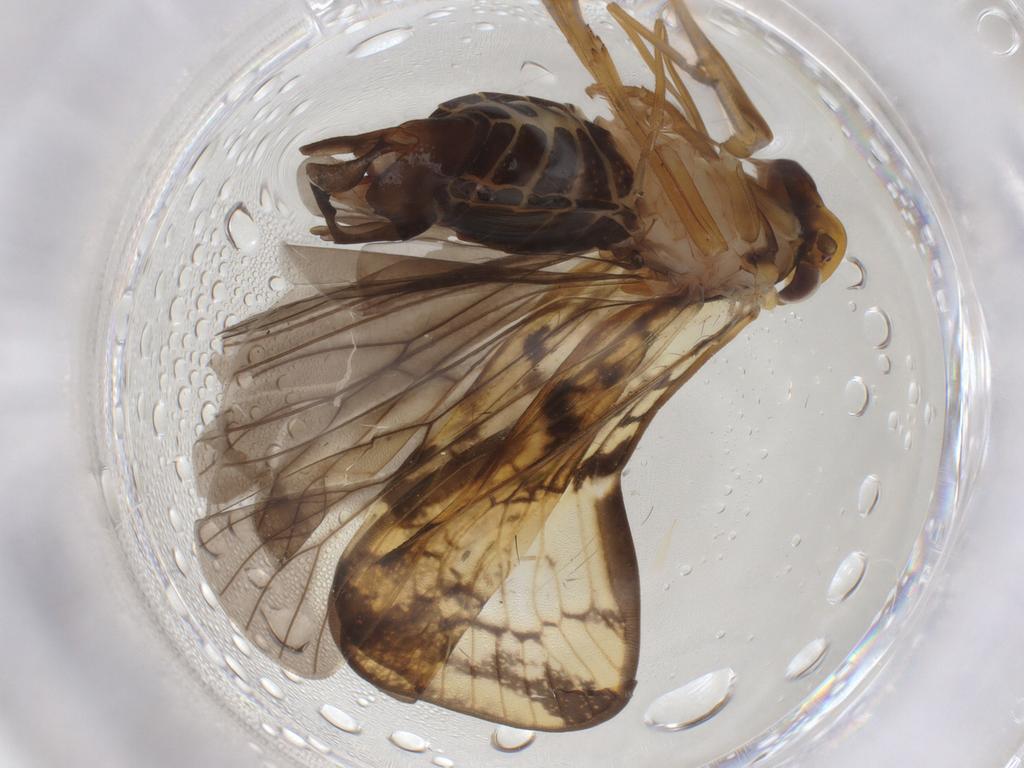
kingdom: Animalia
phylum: Arthropoda
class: Insecta
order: Hemiptera
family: Cixiidae
